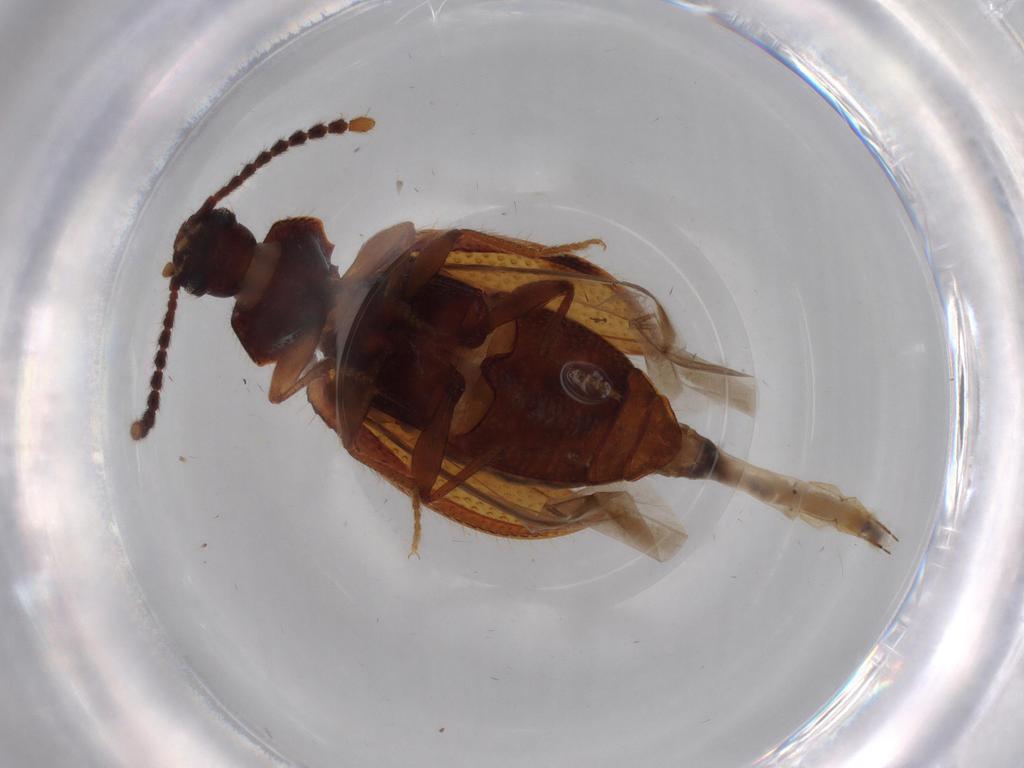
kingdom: Animalia
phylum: Arthropoda
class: Insecta
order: Coleoptera
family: Tenebrionidae
